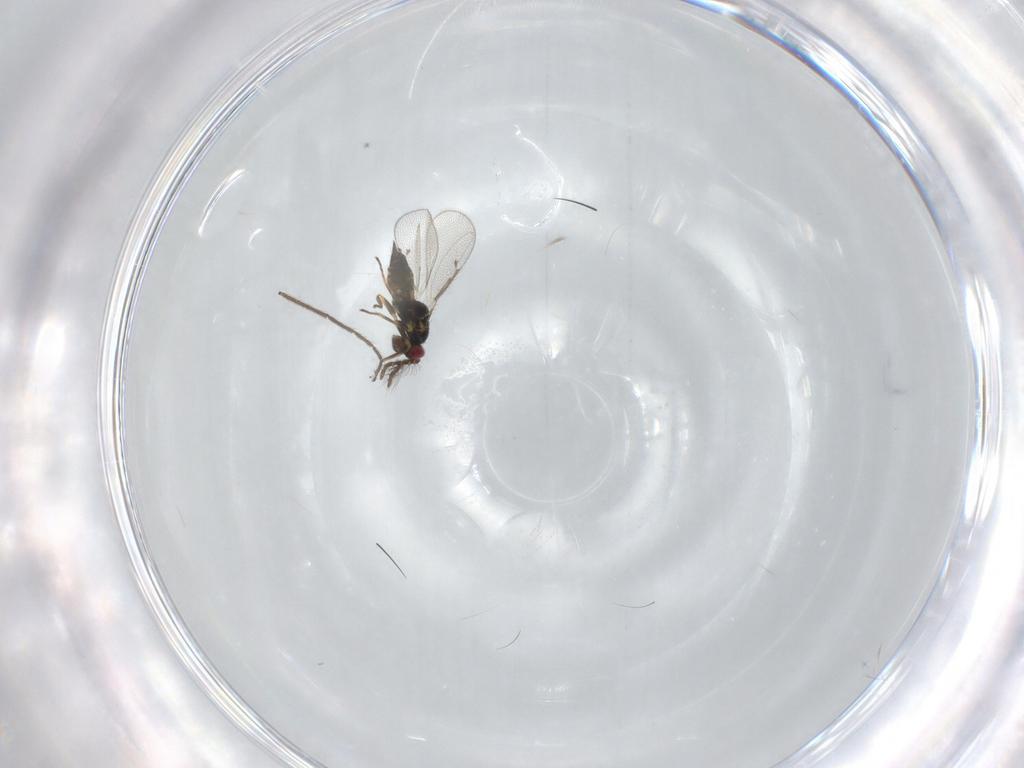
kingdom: Animalia
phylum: Arthropoda
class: Insecta
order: Hymenoptera
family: Eulophidae
